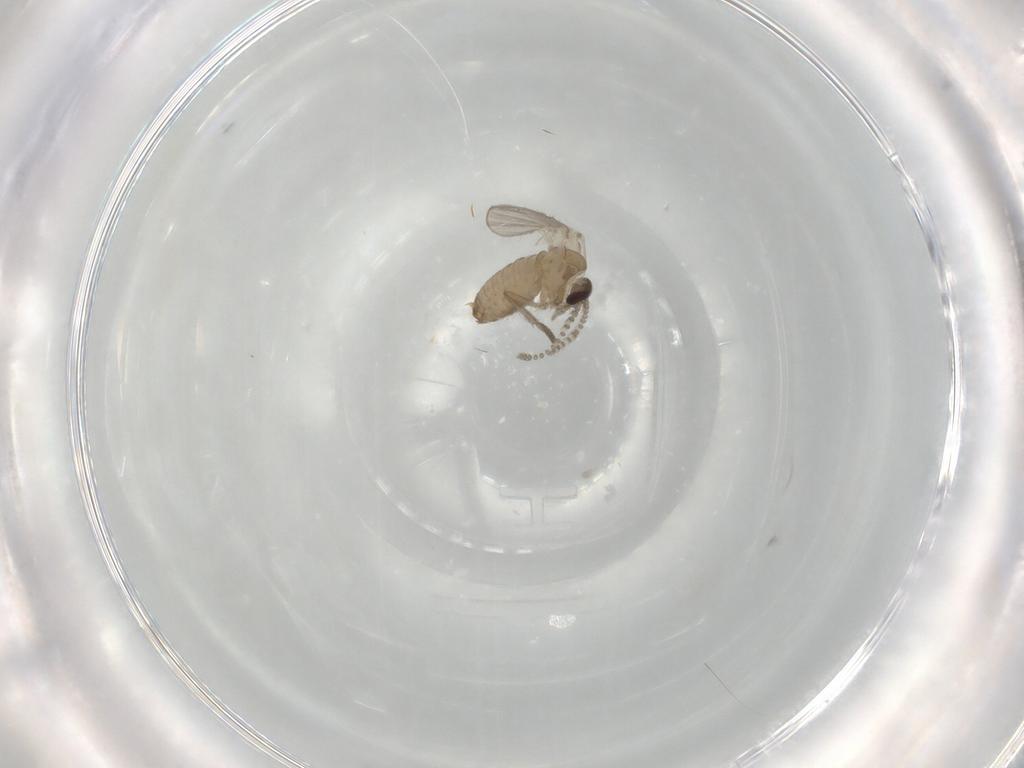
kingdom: Animalia
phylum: Arthropoda
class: Insecta
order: Diptera
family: Psychodidae
